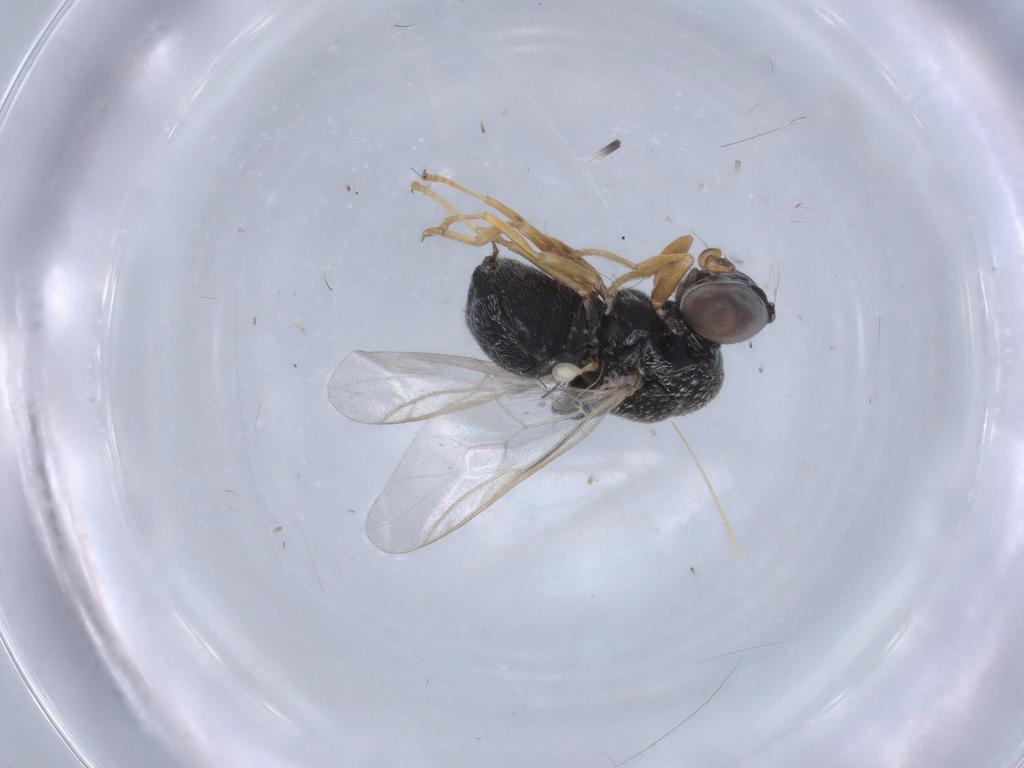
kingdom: Animalia
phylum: Arthropoda
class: Insecta
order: Diptera
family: Stratiomyidae
